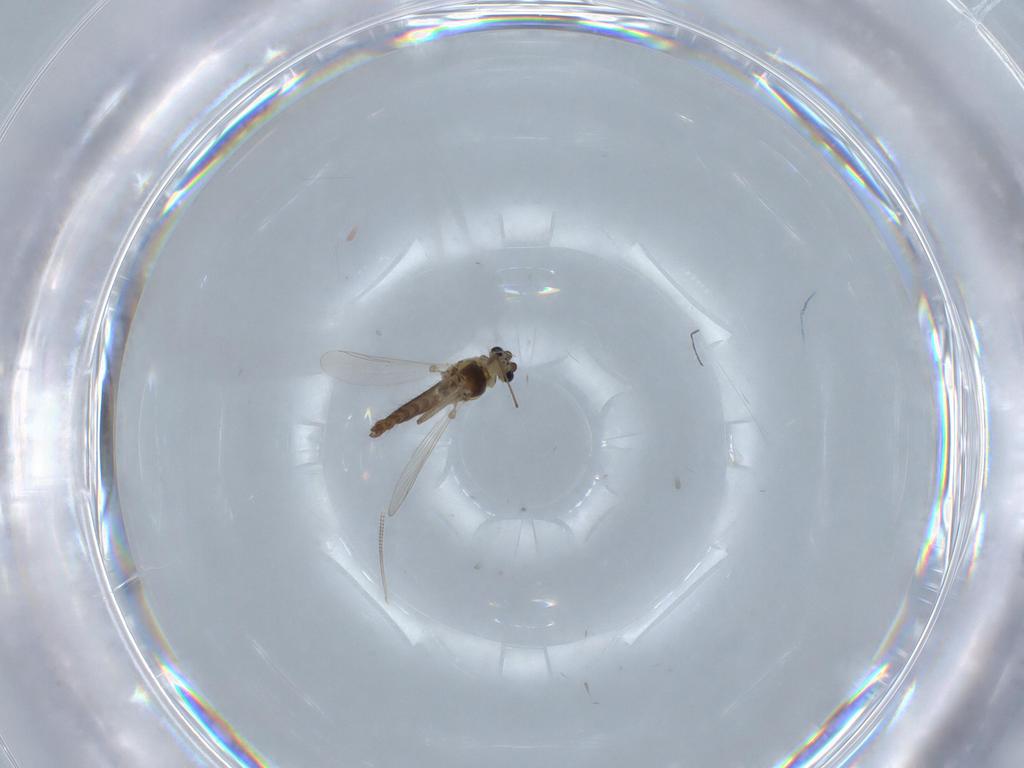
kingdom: Animalia
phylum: Arthropoda
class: Insecta
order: Diptera
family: Chironomidae
